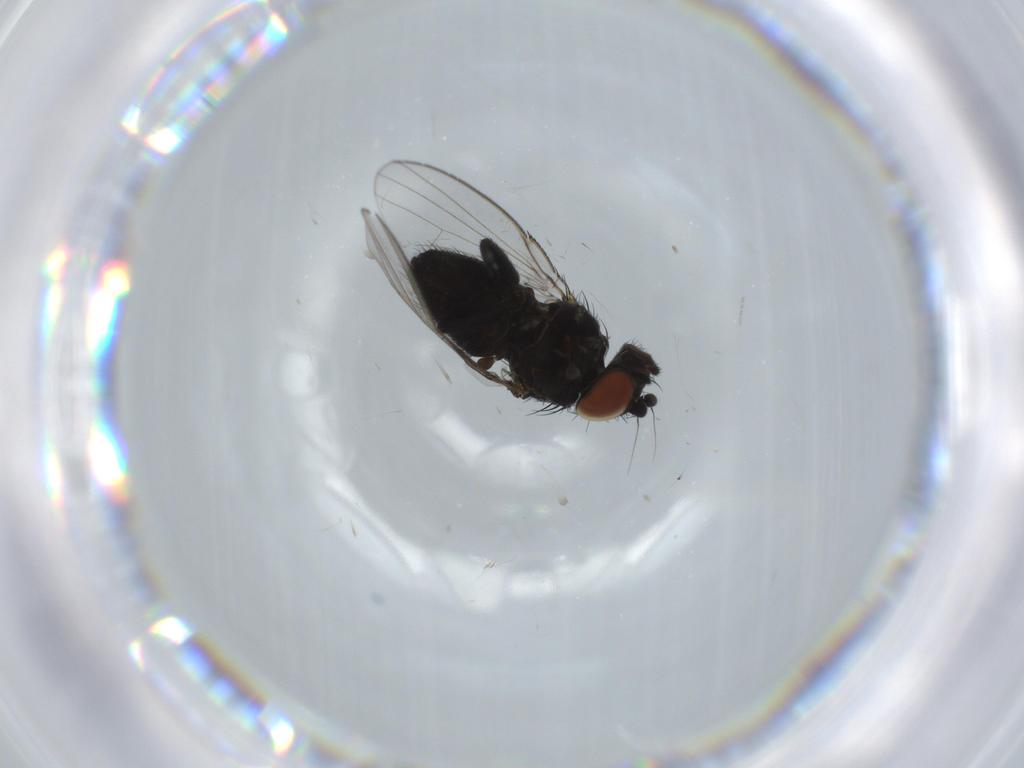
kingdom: Animalia
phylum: Arthropoda
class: Insecta
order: Diptera
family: Milichiidae
